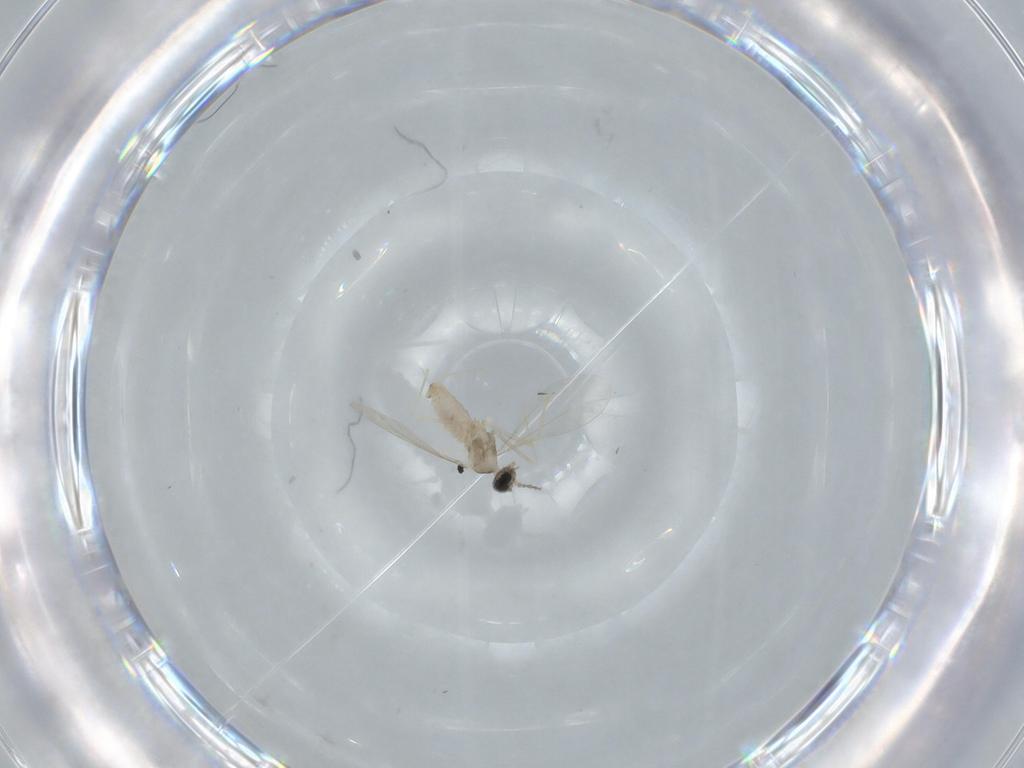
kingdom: Animalia
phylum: Arthropoda
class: Insecta
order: Diptera
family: Cecidomyiidae
